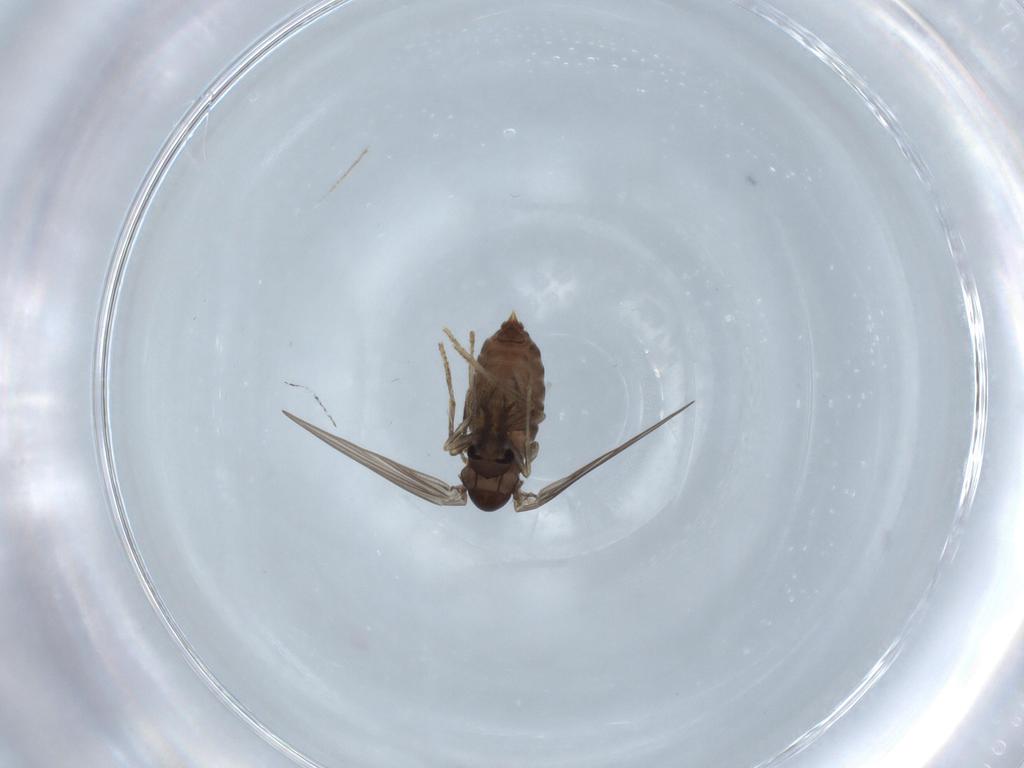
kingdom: Animalia
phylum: Arthropoda
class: Insecta
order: Diptera
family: Psychodidae
